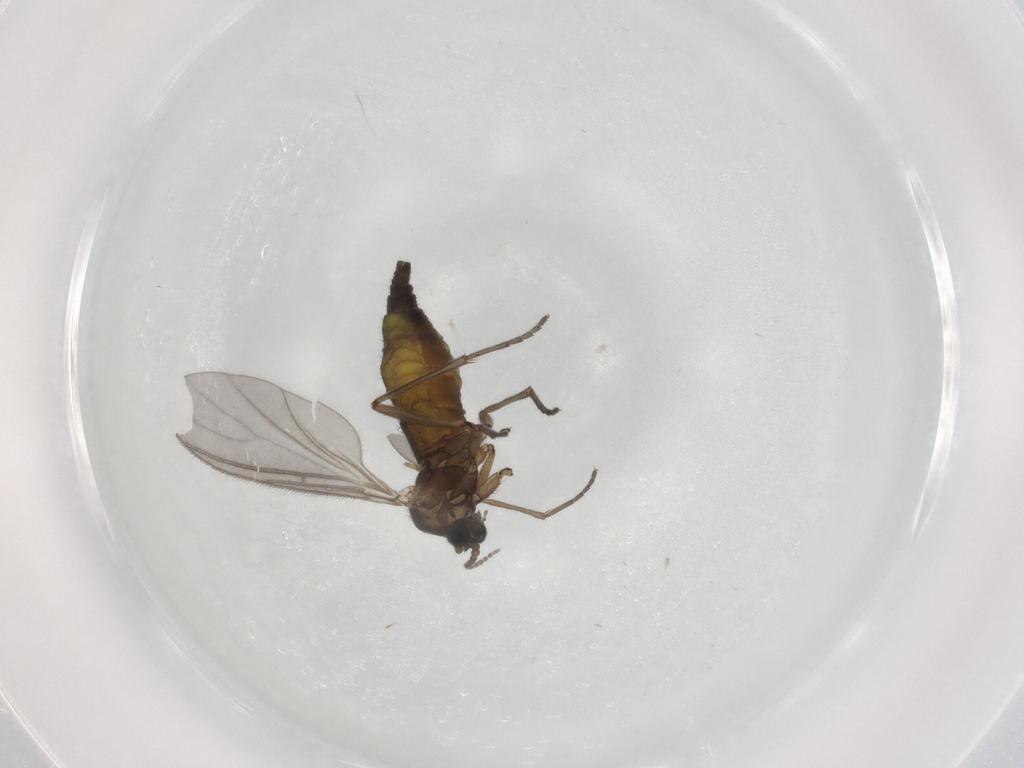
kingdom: Animalia
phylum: Arthropoda
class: Insecta
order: Diptera
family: Sciaridae
